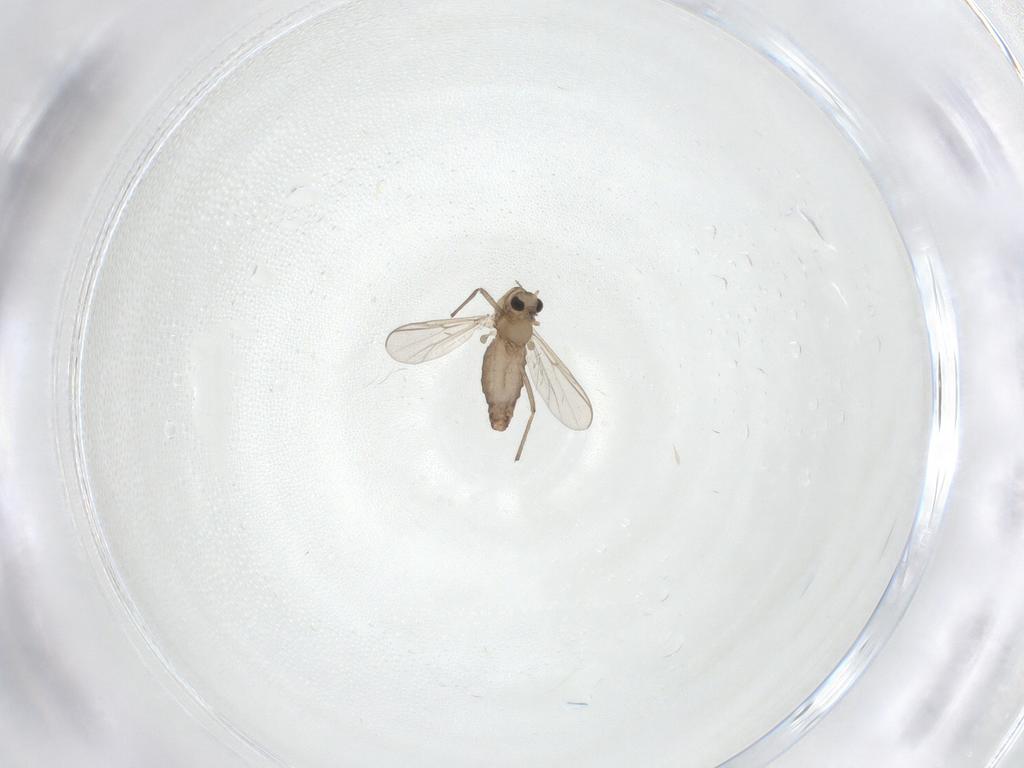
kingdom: Animalia
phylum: Arthropoda
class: Insecta
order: Diptera
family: Chironomidae
